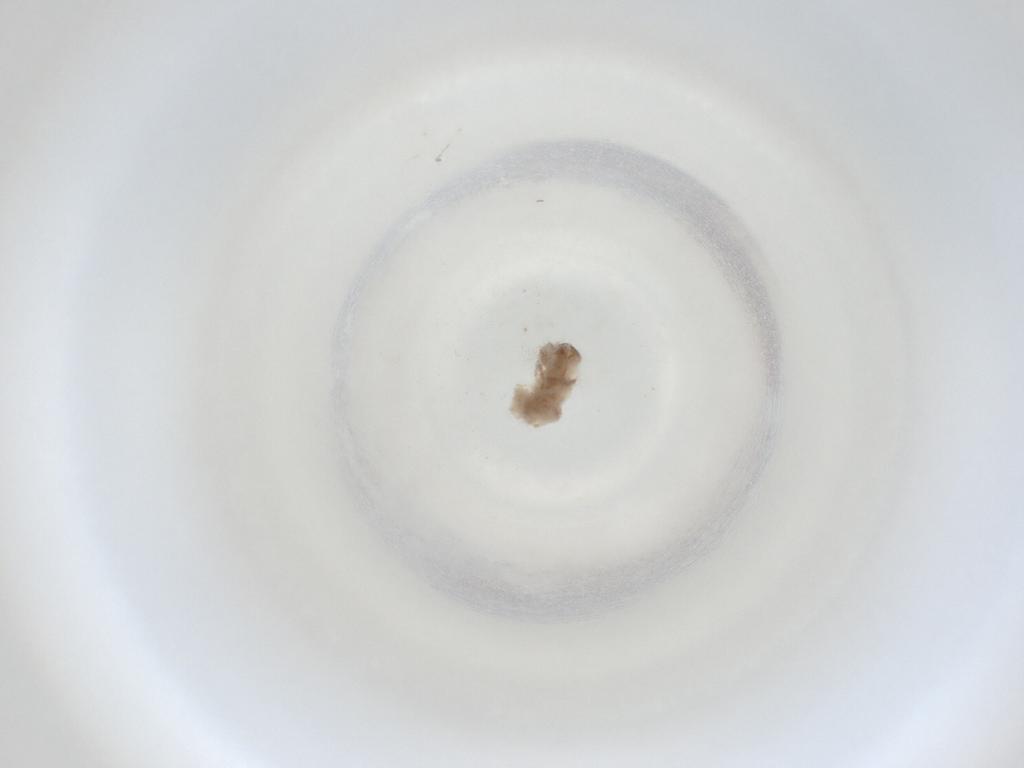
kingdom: Animalia
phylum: Arthropoda
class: Insecta
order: Diptera
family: Cecidomyiidae
